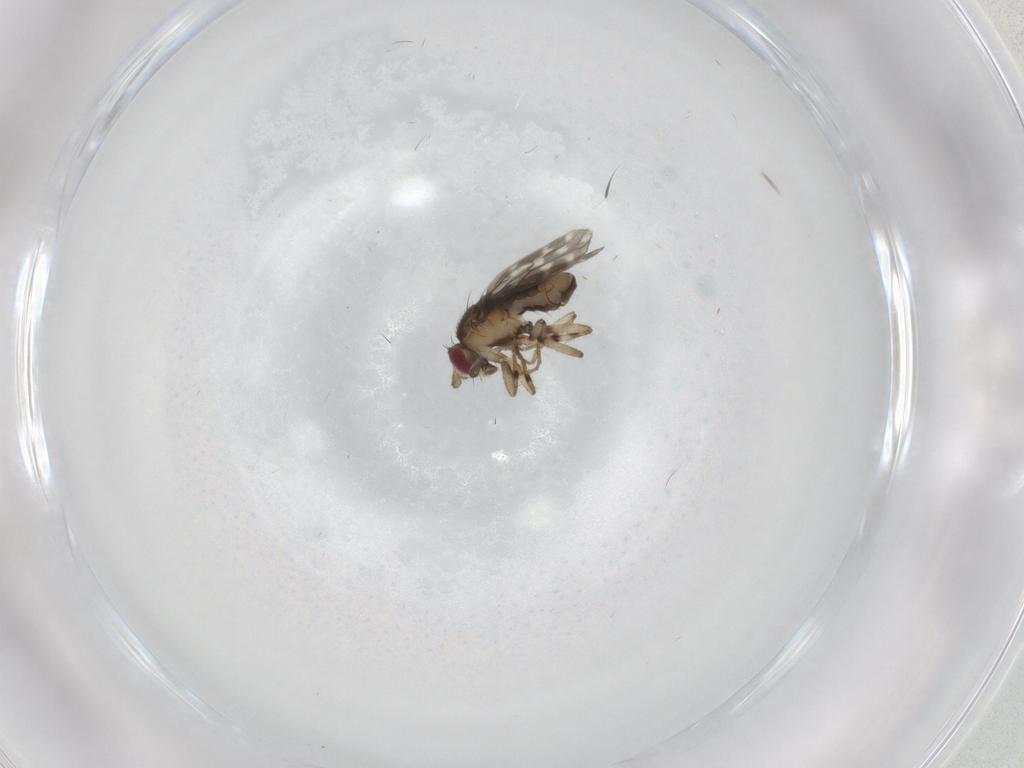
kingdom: Animalia
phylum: Arthropoda
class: Insecta
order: Diptera
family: Sphaeroceridae
